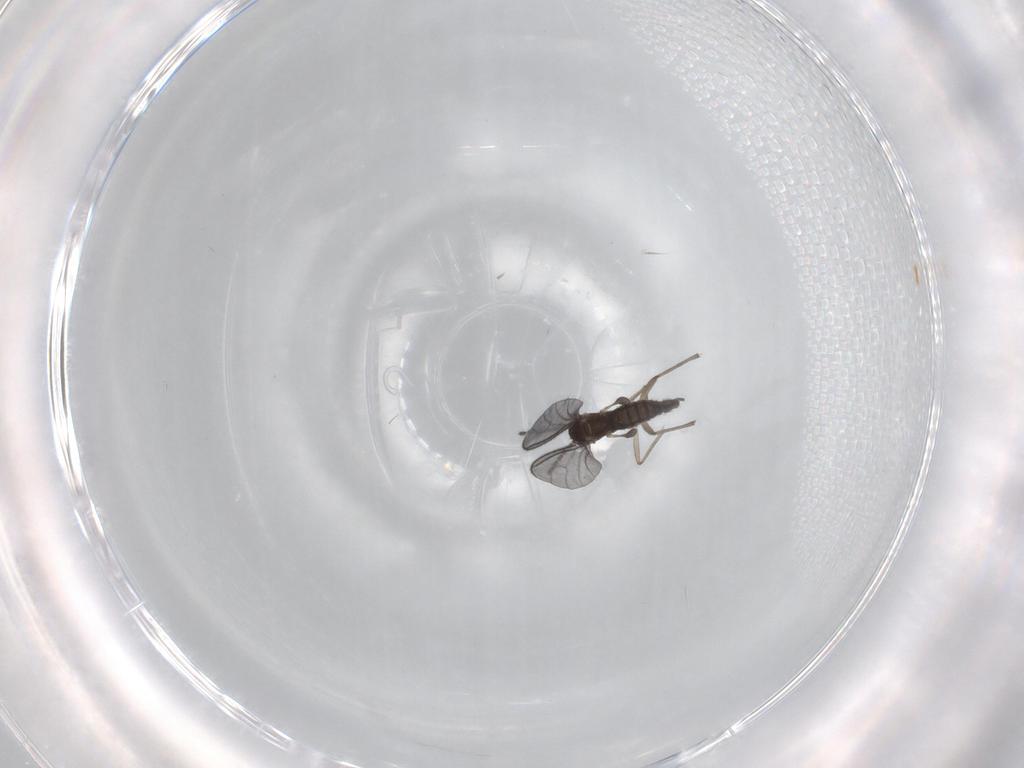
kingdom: Animalia
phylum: Arthropoda
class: Insecta
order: Diptera
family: Sciaridae
